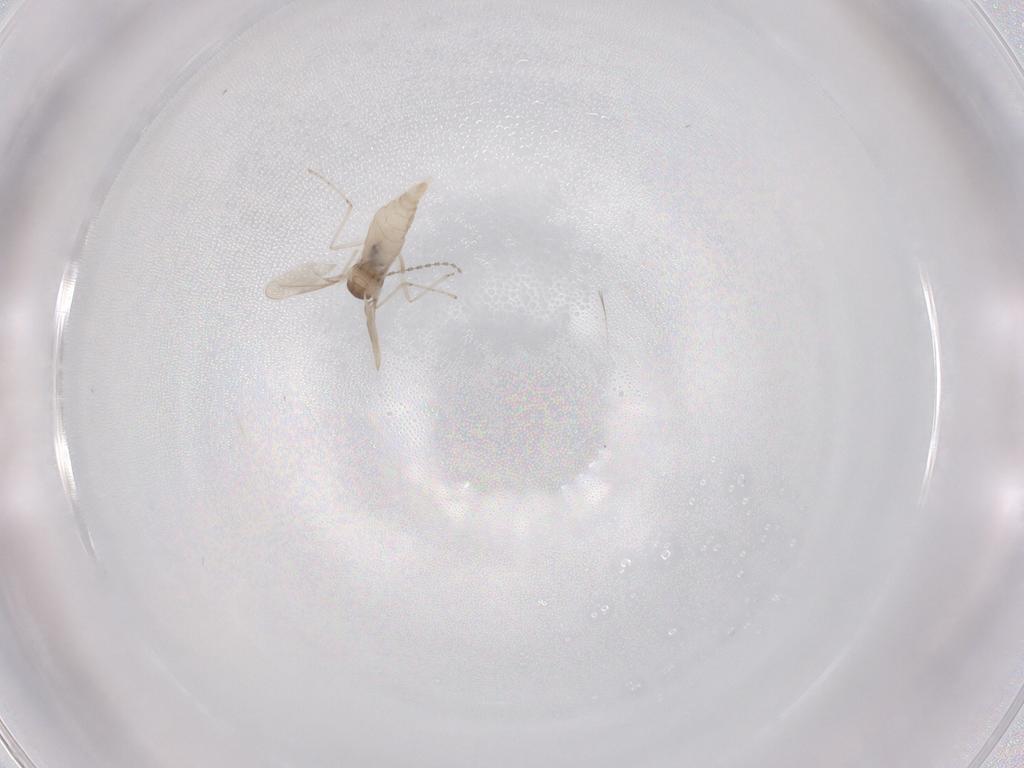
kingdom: Animalia
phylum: Arthropoda
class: Insecta
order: Diptera
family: Cecidomyiidae
